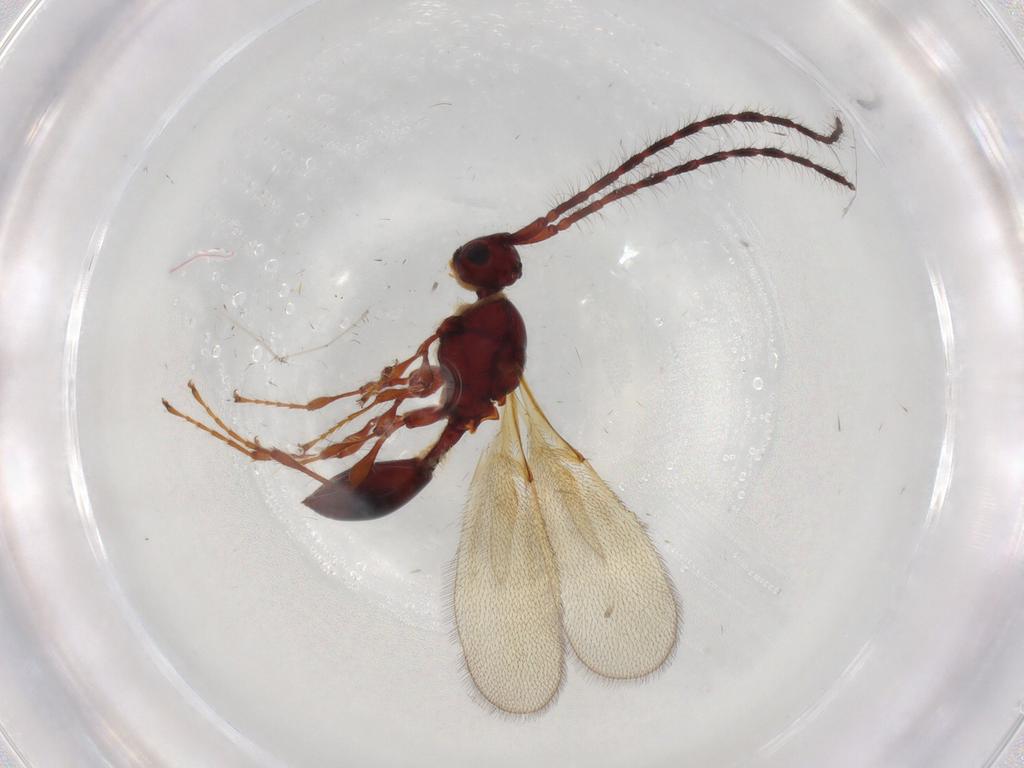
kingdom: Animalia
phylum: Arthropoda
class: Insecta
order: Hymenoptera
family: Diapriidae
